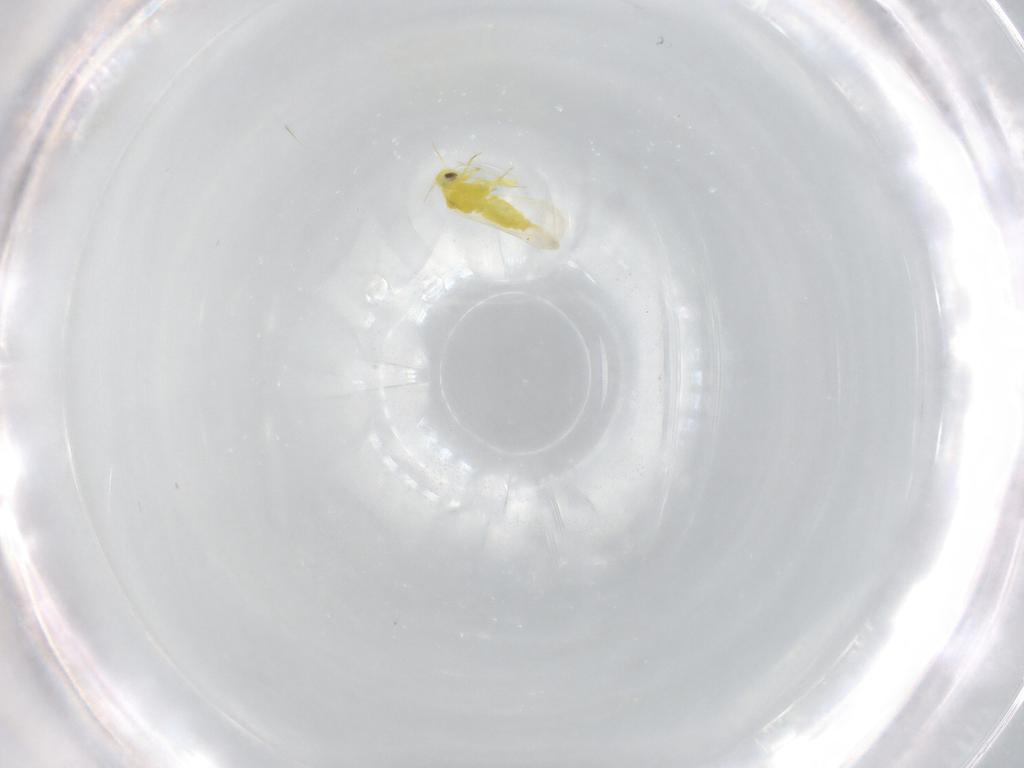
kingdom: Animalia
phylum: Arthropoda
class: Insecta
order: Hemiptera
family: Aleyrodidae
